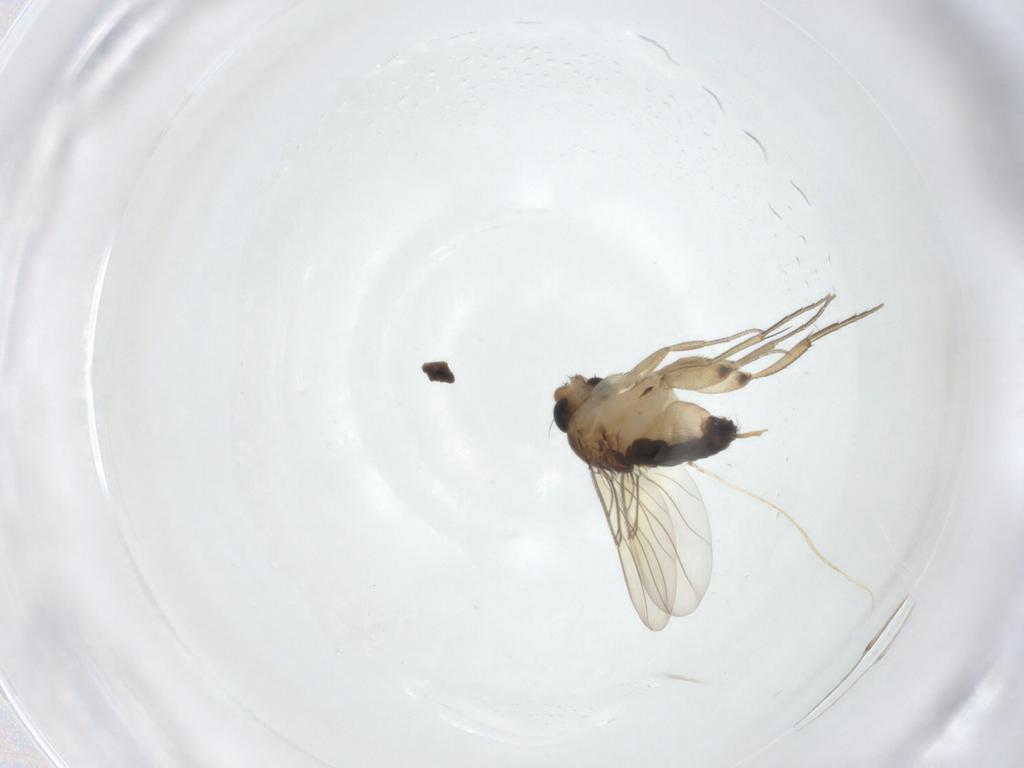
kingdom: Animalia
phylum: Arthropoda
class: Insecta
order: Diptera
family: Phoridae
